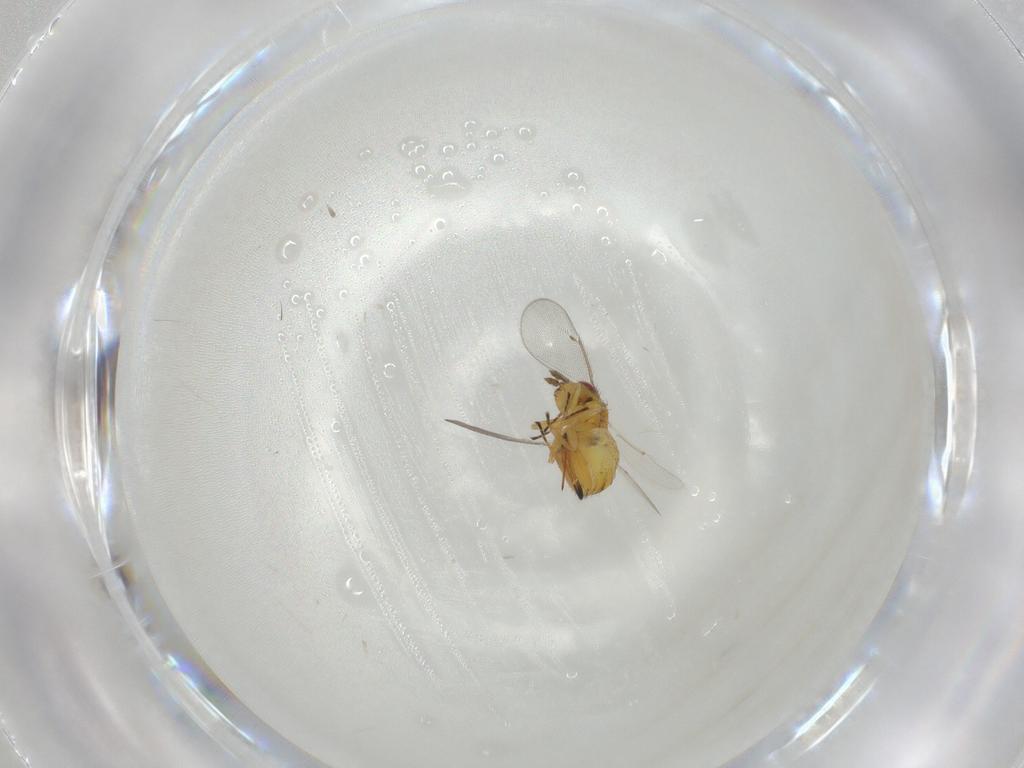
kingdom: Animalia
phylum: Arthropoda
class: Insecta
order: Hymenoptera
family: Eulophidae
